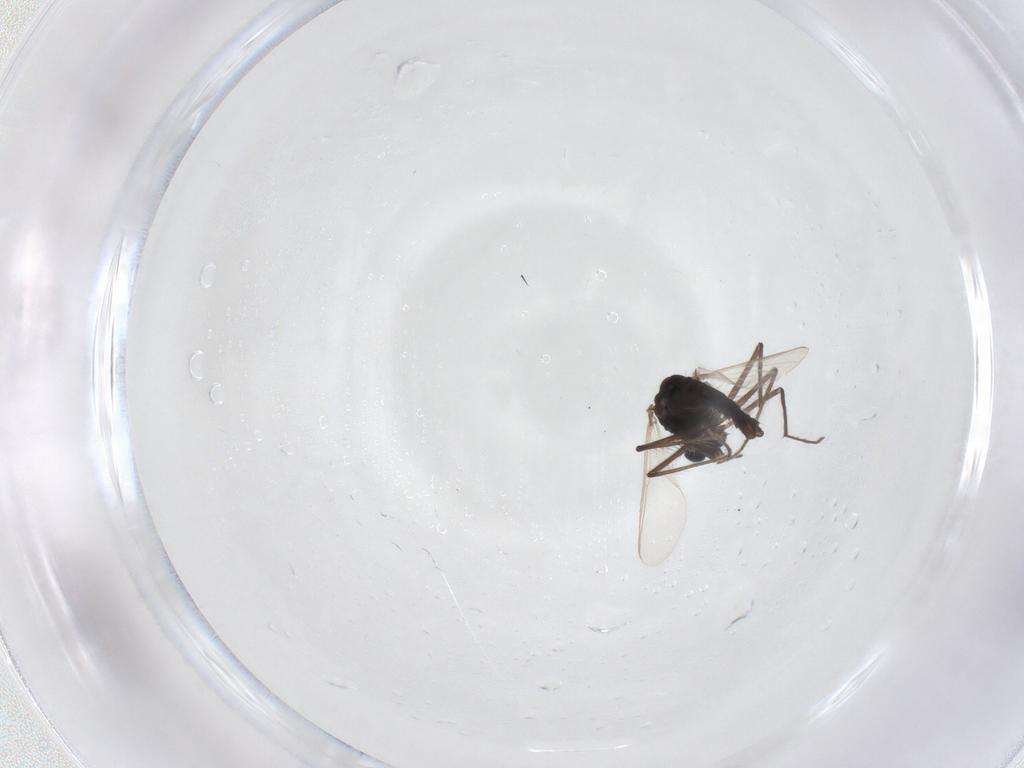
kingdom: Animalia
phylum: Arthropoda
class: Insecta
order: Diptera
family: Chironomidae
